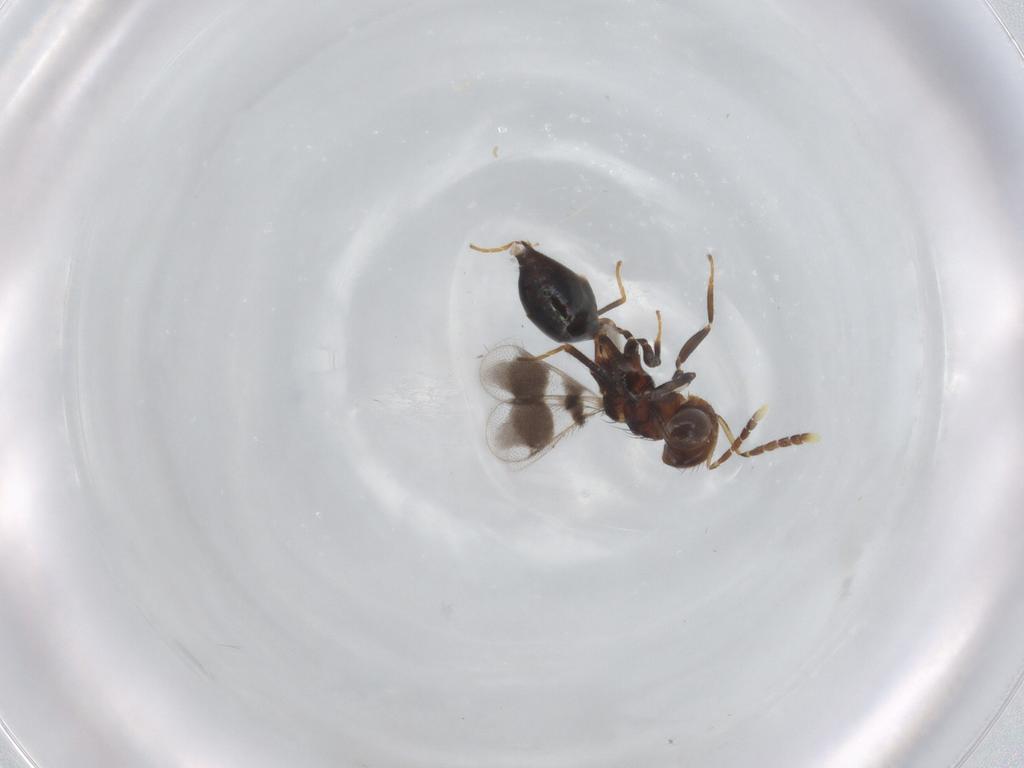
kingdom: Animalia
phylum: Arthropoda
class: Insecta
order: Hymenoptera
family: Eulophidae
